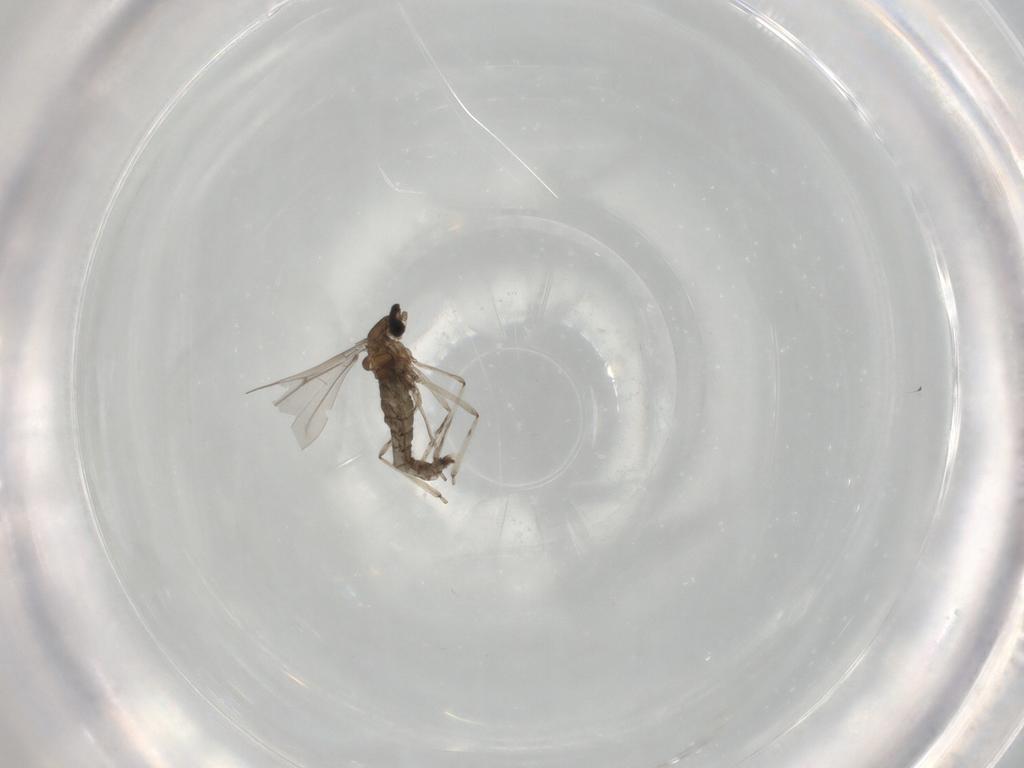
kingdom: Animalia
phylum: Arthropoda
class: Insecta
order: Diptera
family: Cecidomyiidae
